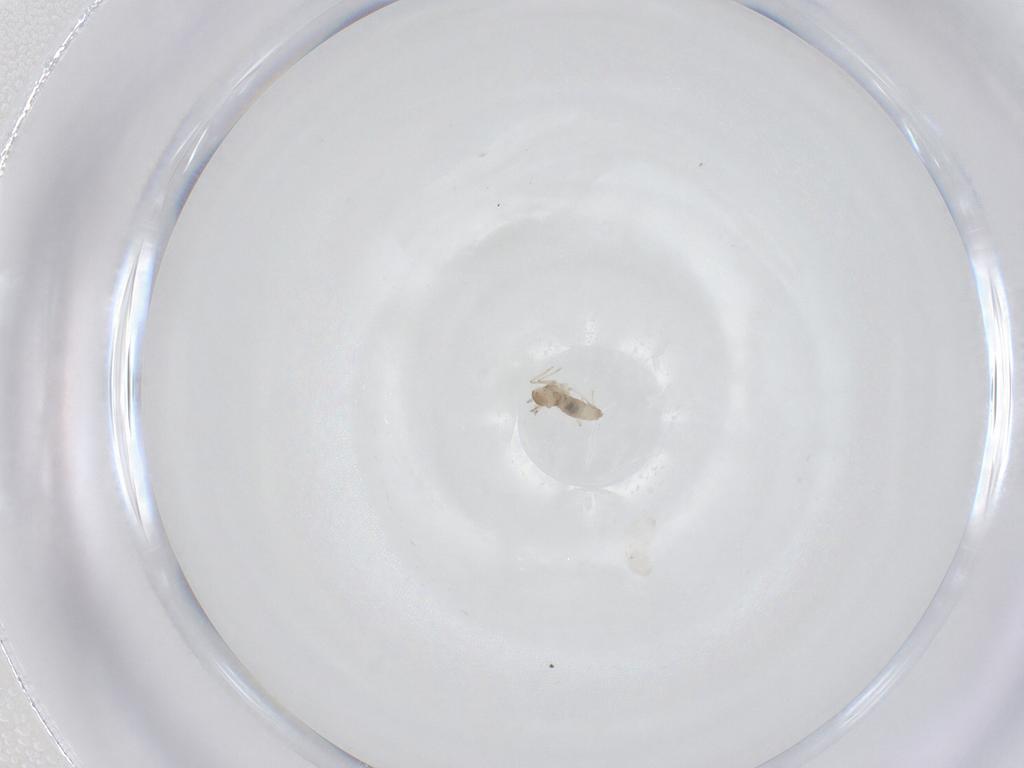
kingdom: Animalia
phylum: Arthropoda
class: Insecta
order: Diptera
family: Cecidomyiidae
